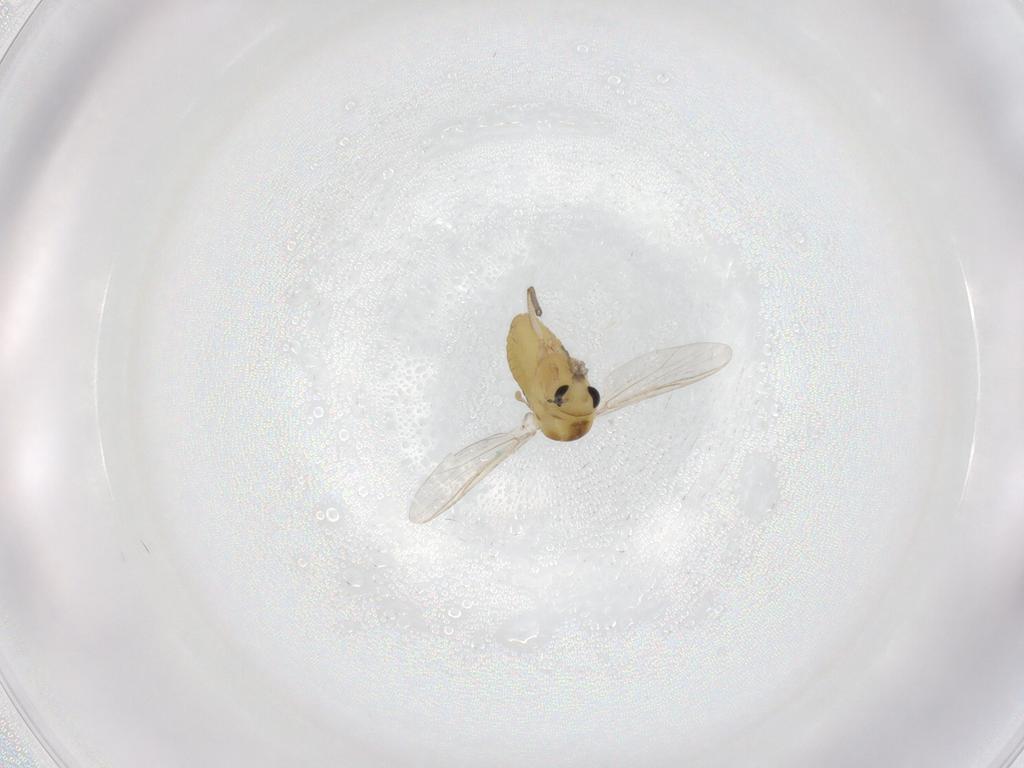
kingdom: Animalia
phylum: Arthropoda
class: Insecta
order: Diptera
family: Chironomidae
